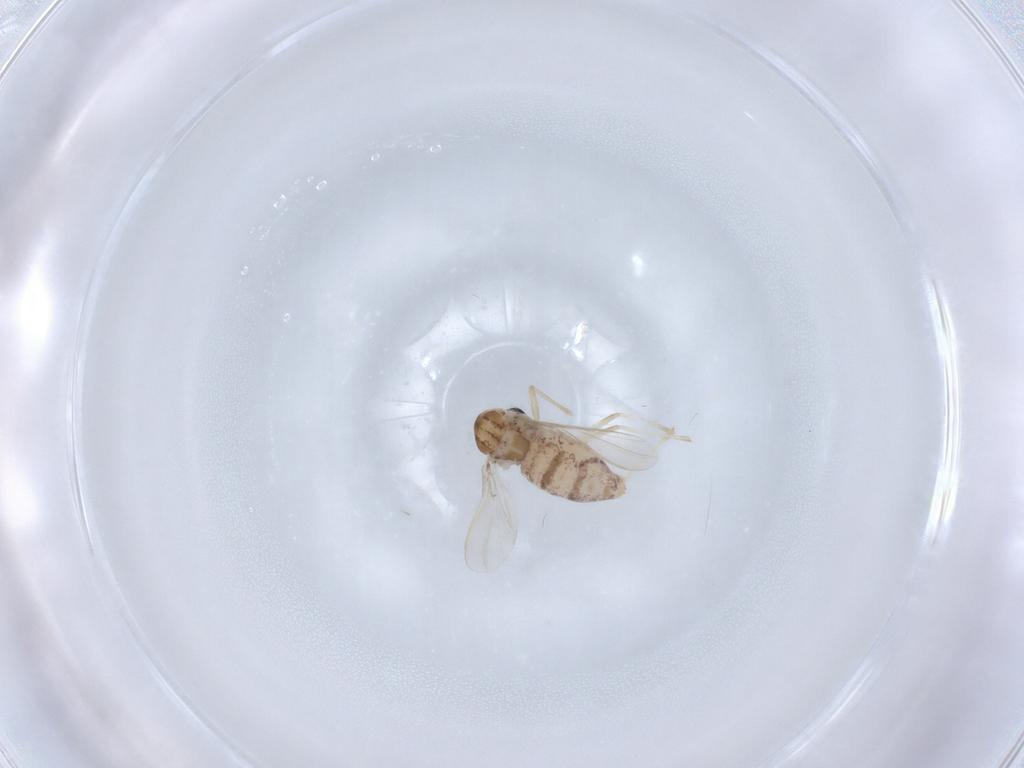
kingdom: Animalia
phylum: Arthropoda
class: Insecta
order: Diptera
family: Chironomidae
